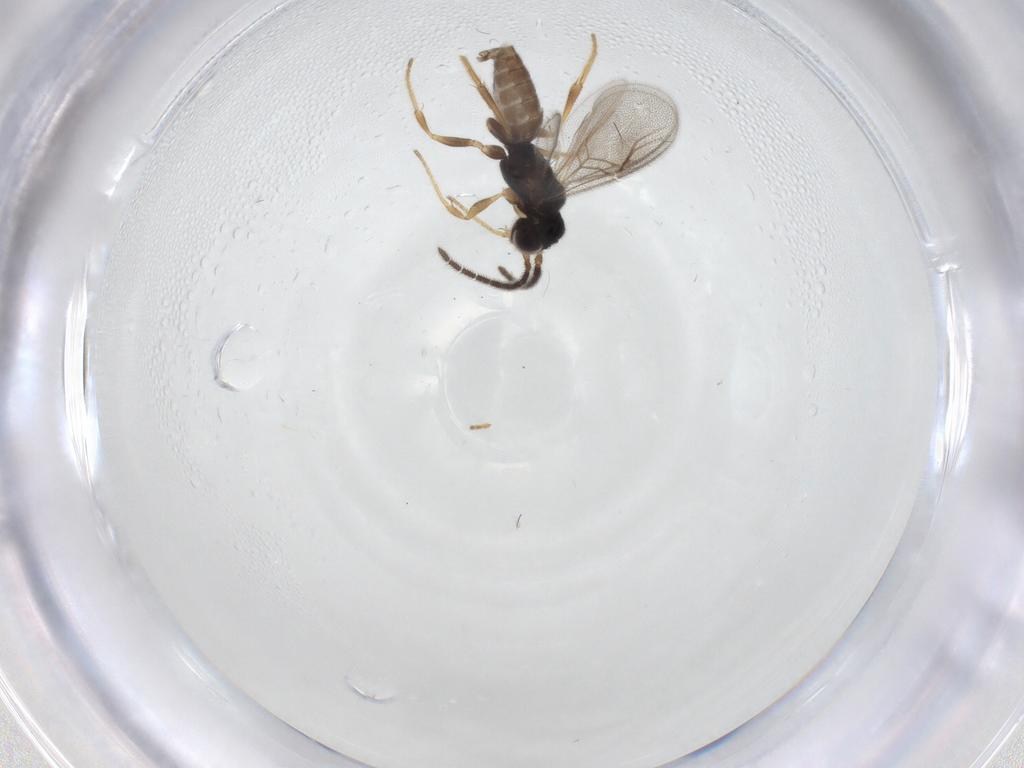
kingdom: Animalia
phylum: Arthropoda
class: Insecta
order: Hymenoptera
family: Dryinidae
